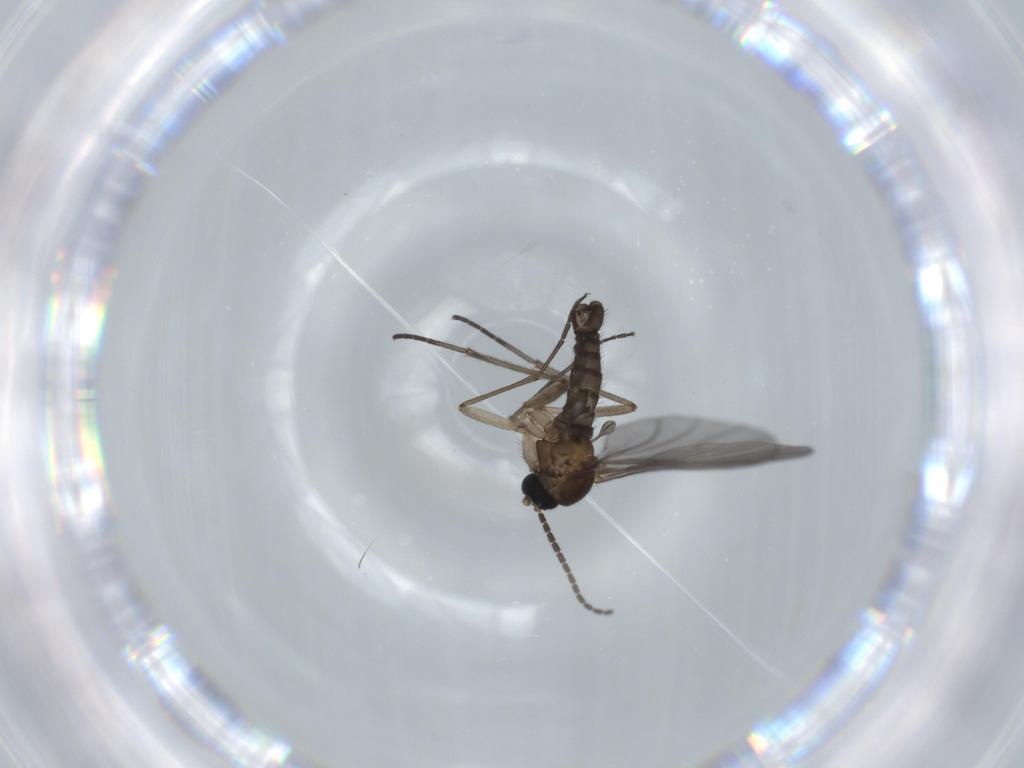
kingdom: Animalia
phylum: Arthropoda
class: Insecta
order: Diptera
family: Sciaridae
